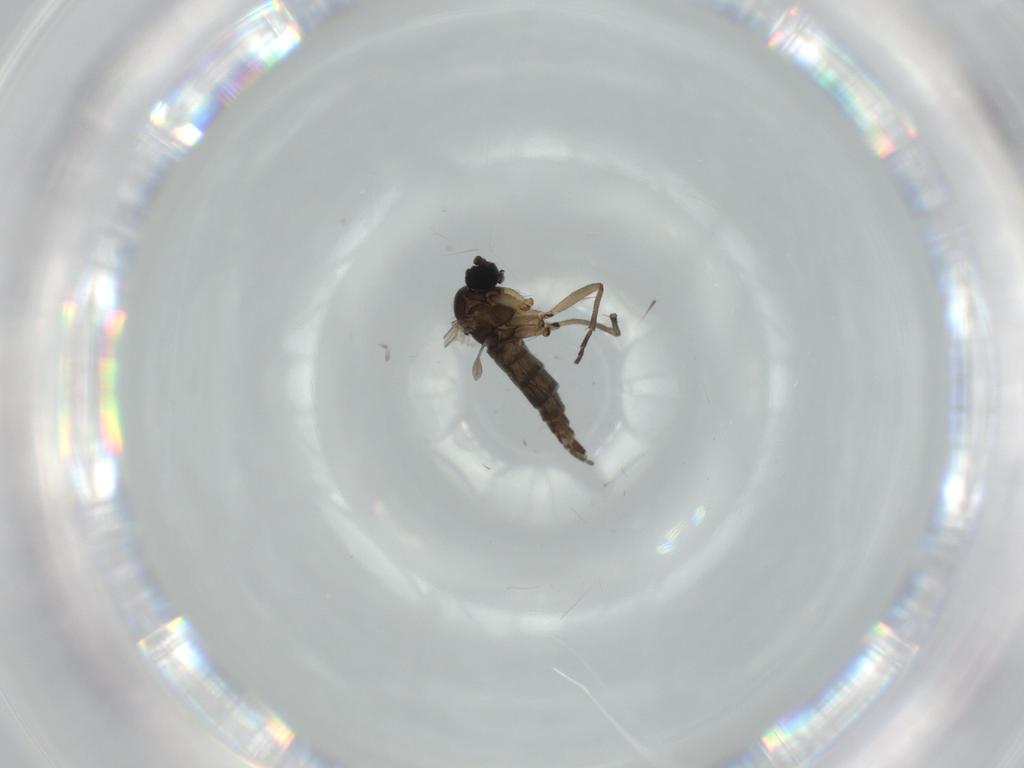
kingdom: Animalia
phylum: Arthropoda
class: Insecta
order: Diptera
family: Sciaridae
